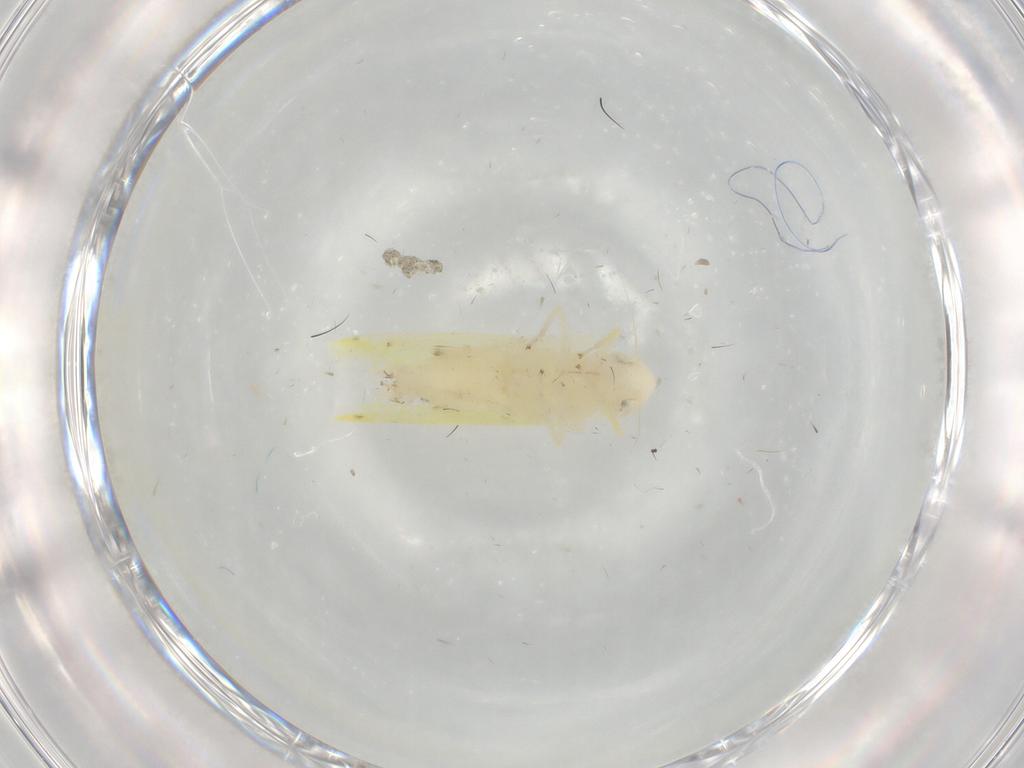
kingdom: Animalia
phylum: Arthropoda
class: Insecta
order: Hemiptera
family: Cicadellidae
